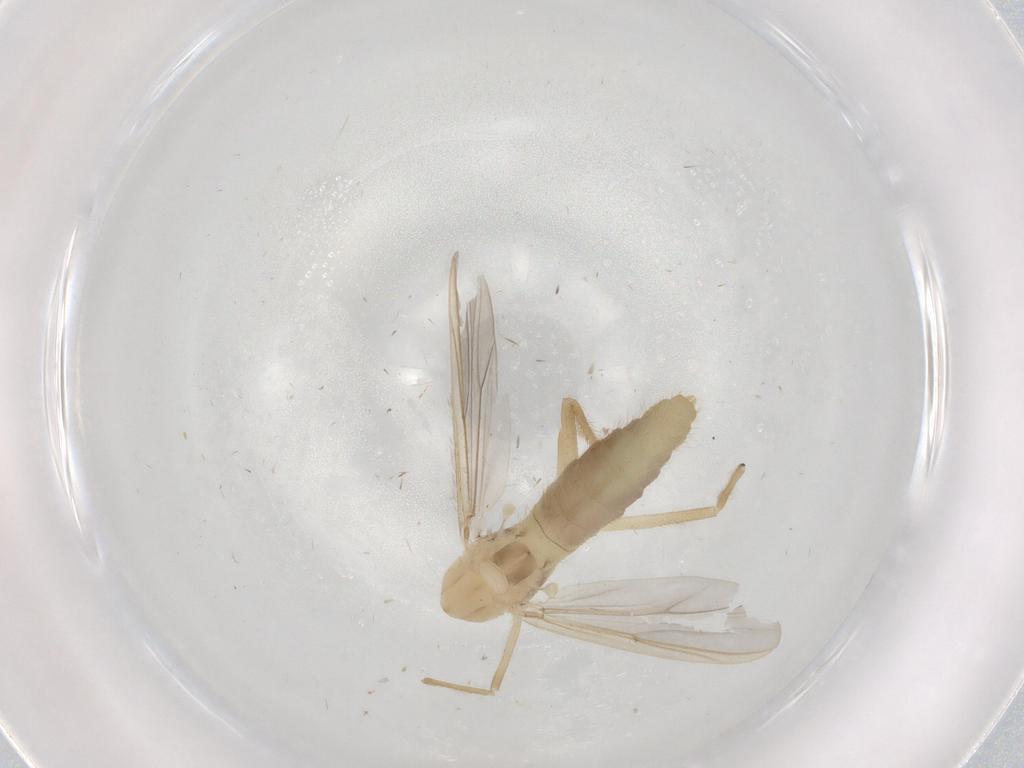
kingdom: Animalia
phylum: Arthropoda
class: Insecta
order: Diptera
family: Chironomidae
